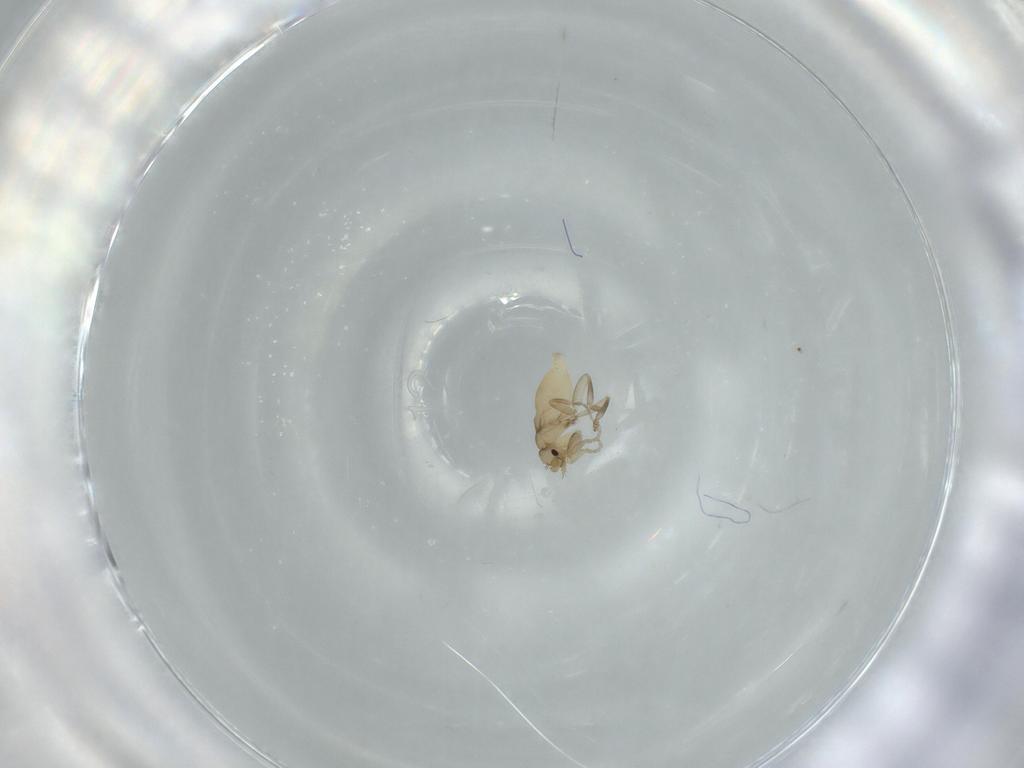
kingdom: Animalia
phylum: Arthropoda
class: Insecta
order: Diptera
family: Phoridae
